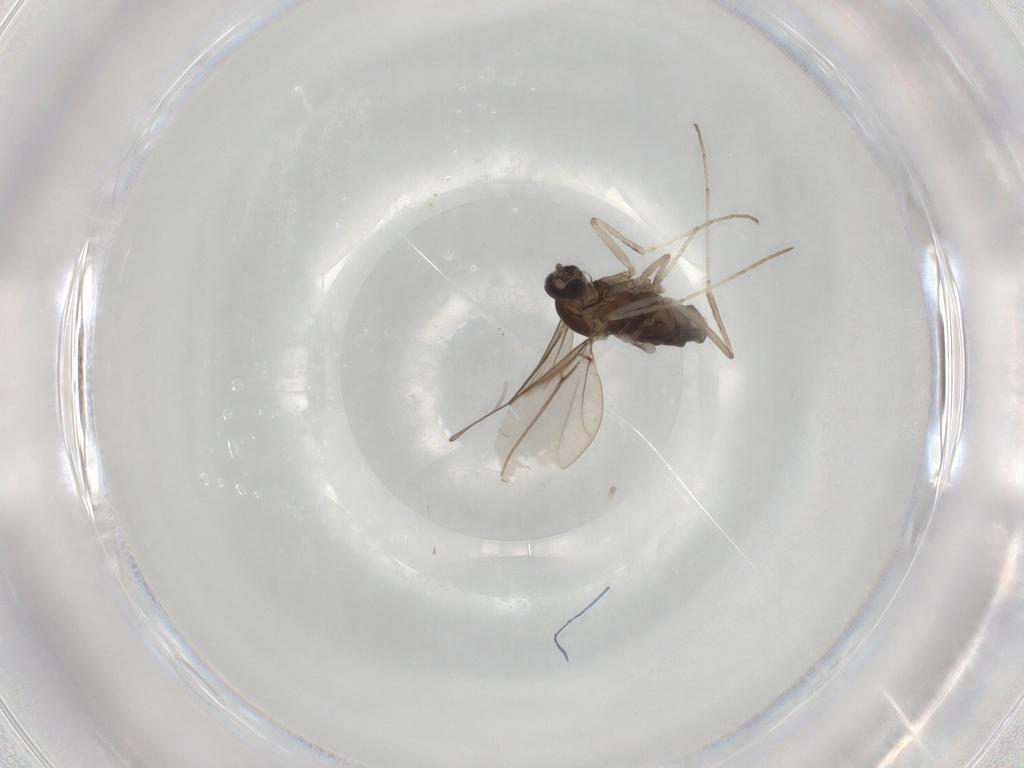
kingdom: Animalia
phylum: Arthropoda
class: Insecta
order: Diptera
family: Cecidomyiidae
